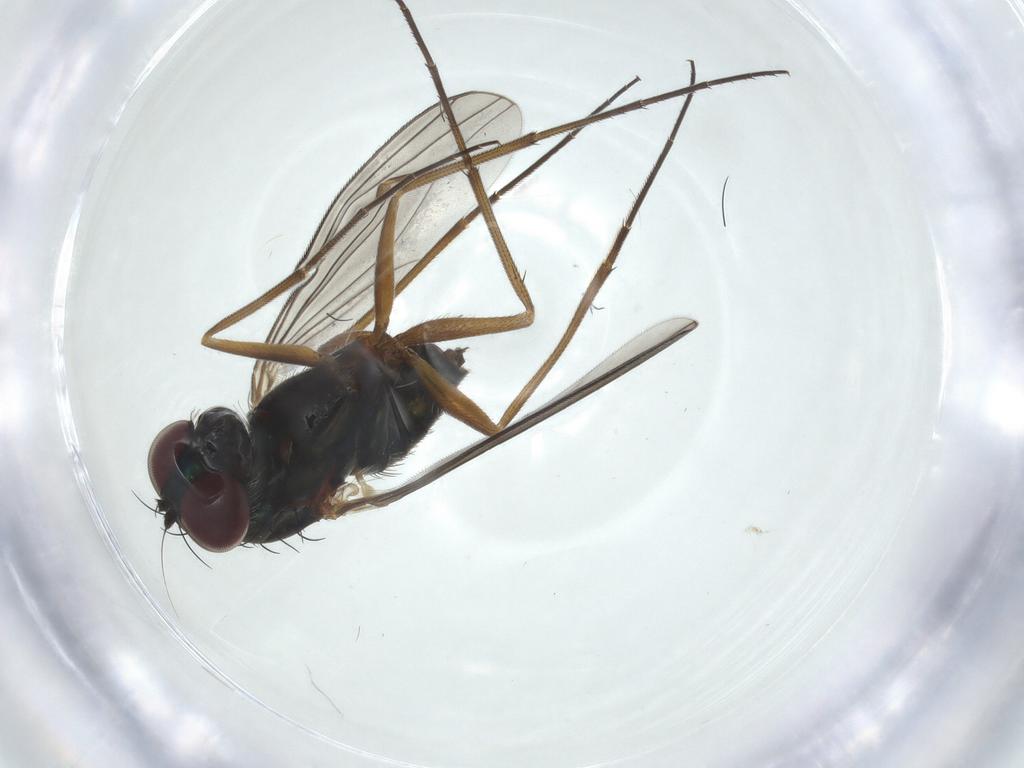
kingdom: Animalia
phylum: Arthropoda
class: Insecta
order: Diptera
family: Dolichopodidae
